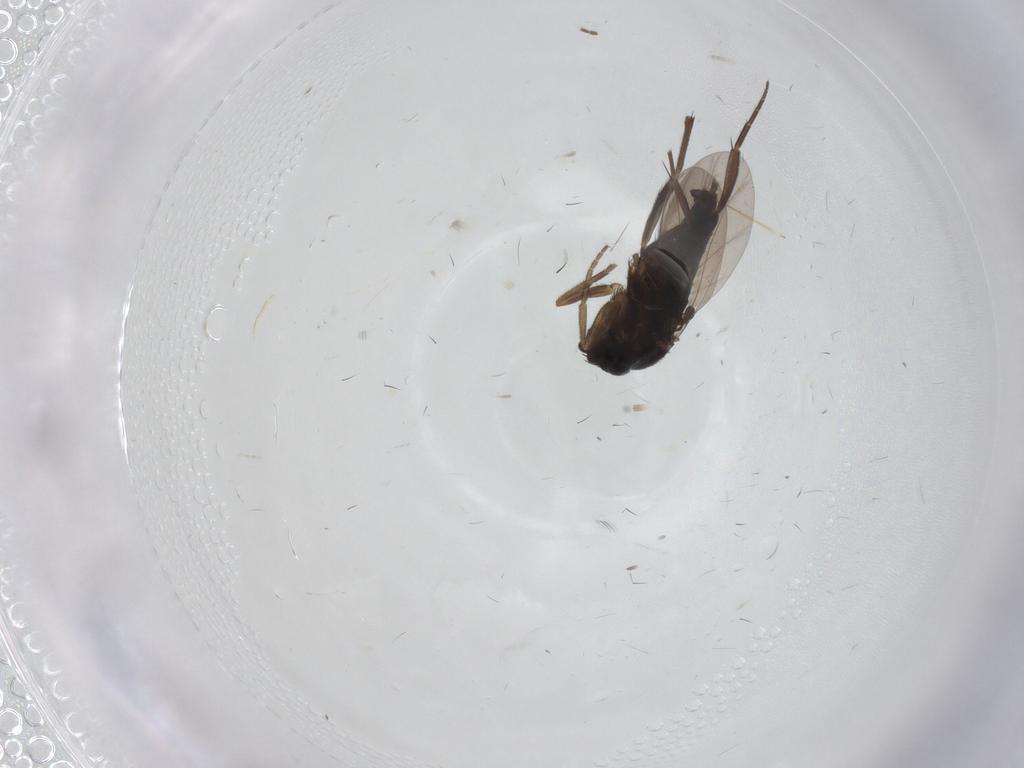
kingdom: Animalia
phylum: Arthropoda
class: Insecta
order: Diptera
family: Phoridae
